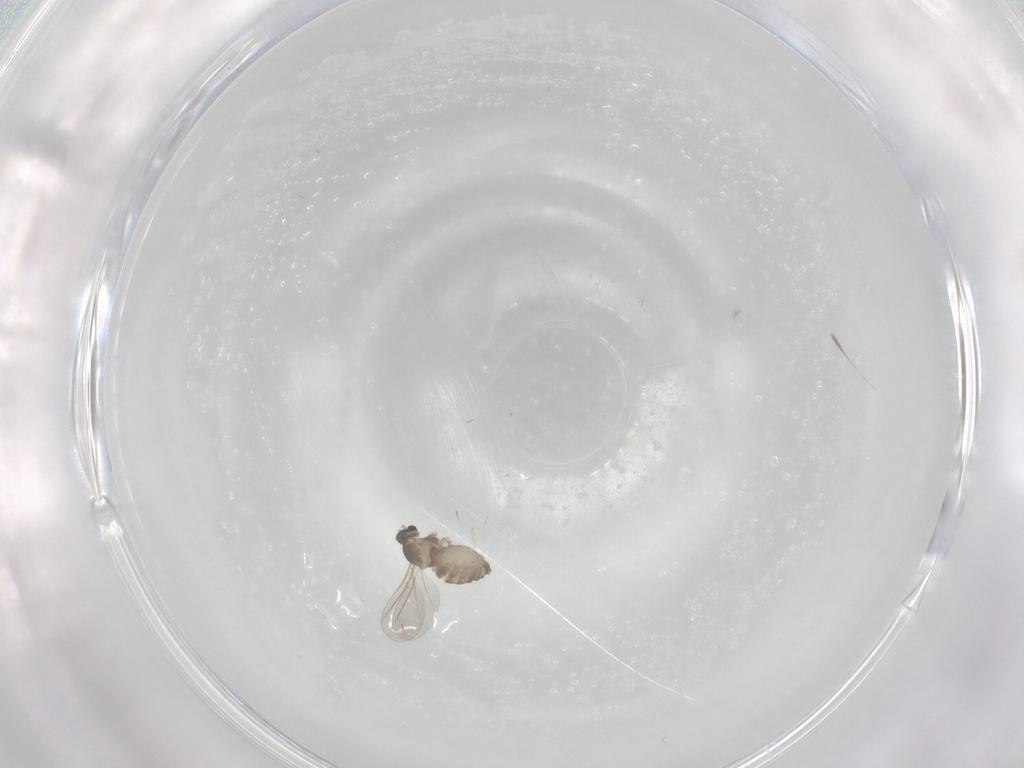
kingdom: Animalia
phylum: Arthropoda
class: Insecta
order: Diptera
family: Cecidomyiidae
